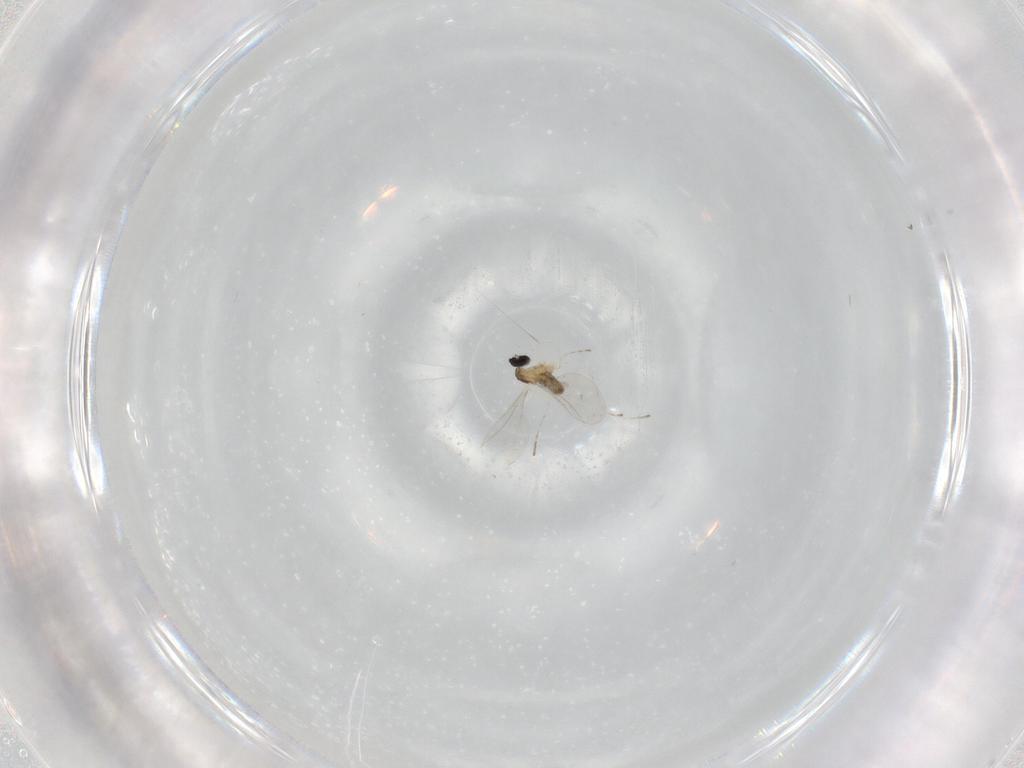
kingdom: Animalia
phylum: Arthropoda
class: Insecta
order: Diptera
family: Cecidomyiidae
